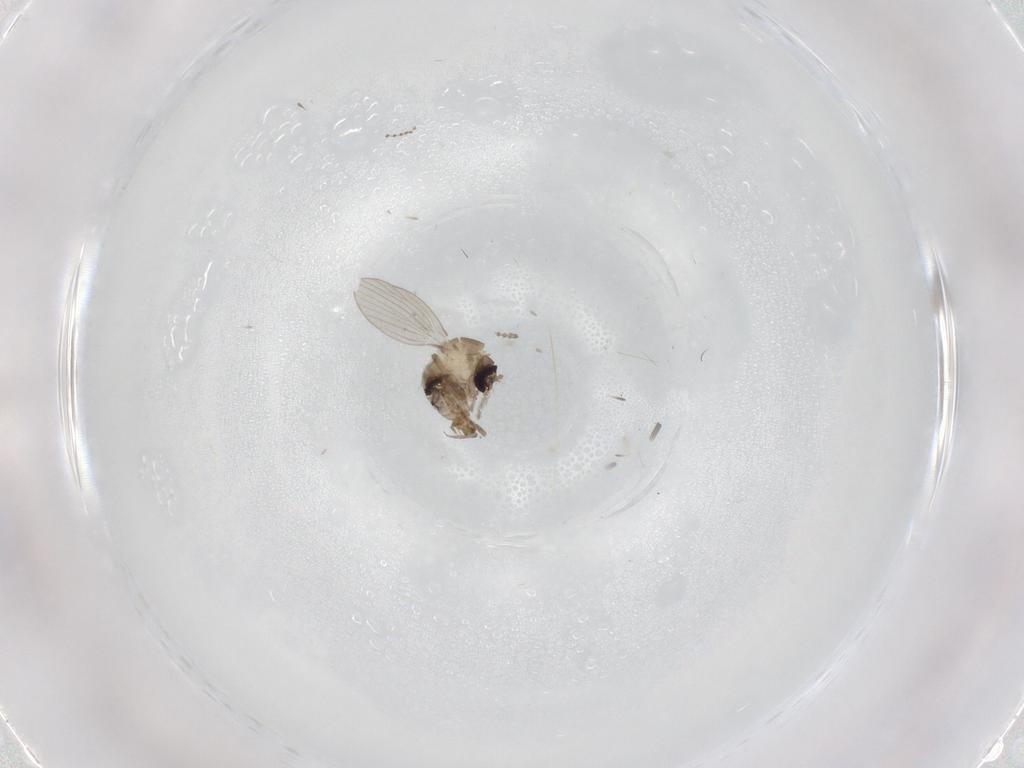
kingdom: Animalia
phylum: Arthropoda
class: Insecta
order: Diptera
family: Psychodidae
